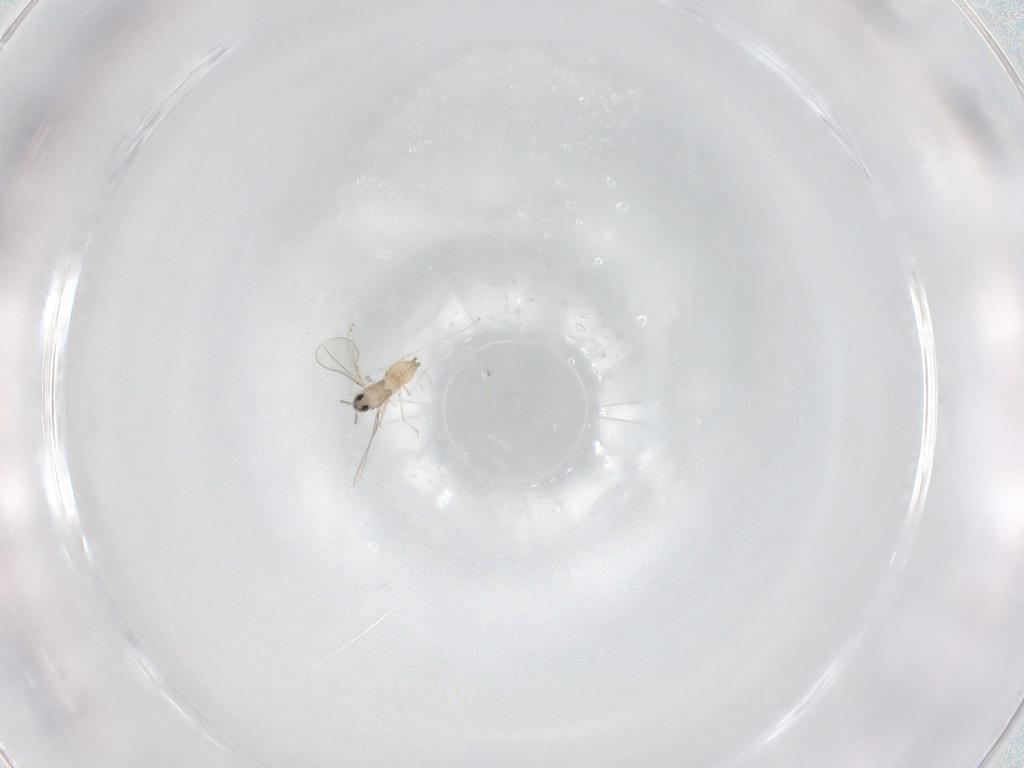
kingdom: Animalia
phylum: Arthropoda
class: Insecta
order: Diptera
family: Cecidomyiidae
